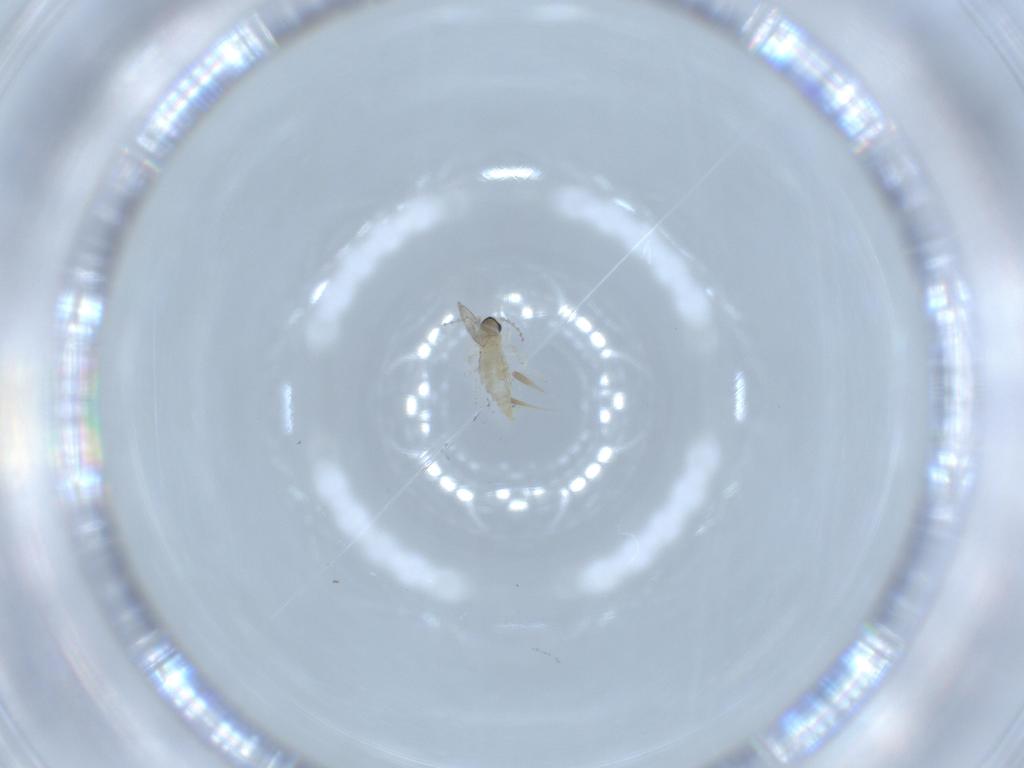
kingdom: Animalia
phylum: Arthropoda
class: Insecta
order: Diptera
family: Cecidomyiidae
